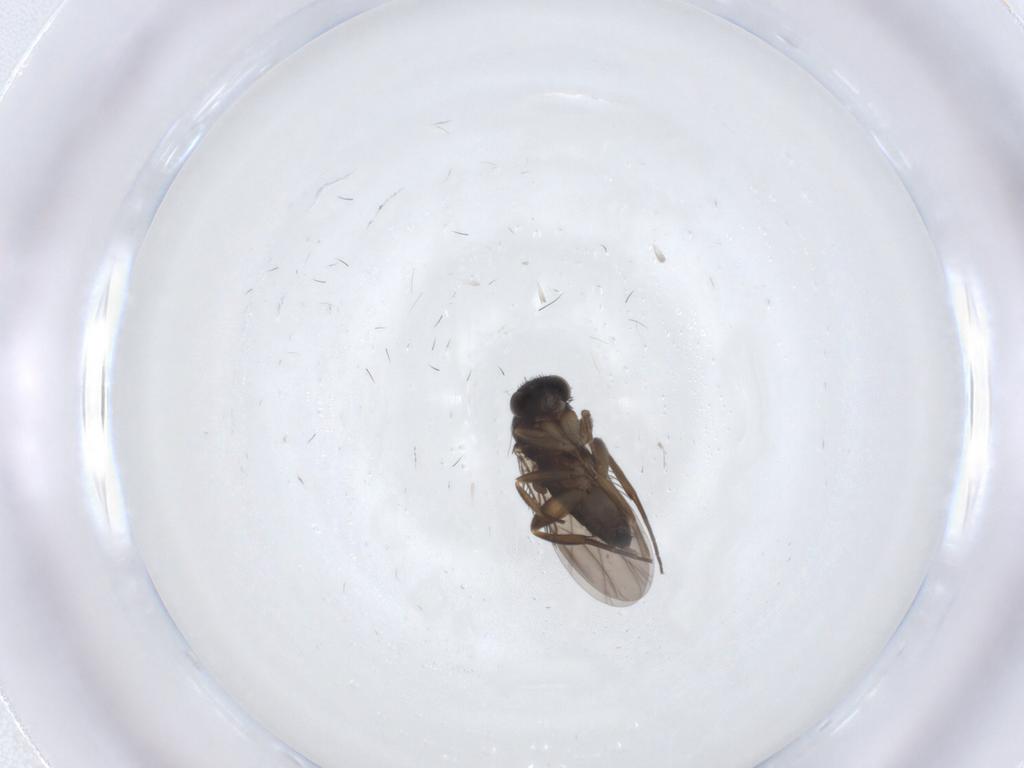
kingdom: Animalia
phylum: Arthropoda
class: Insecta
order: Diptera
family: Phoridae
